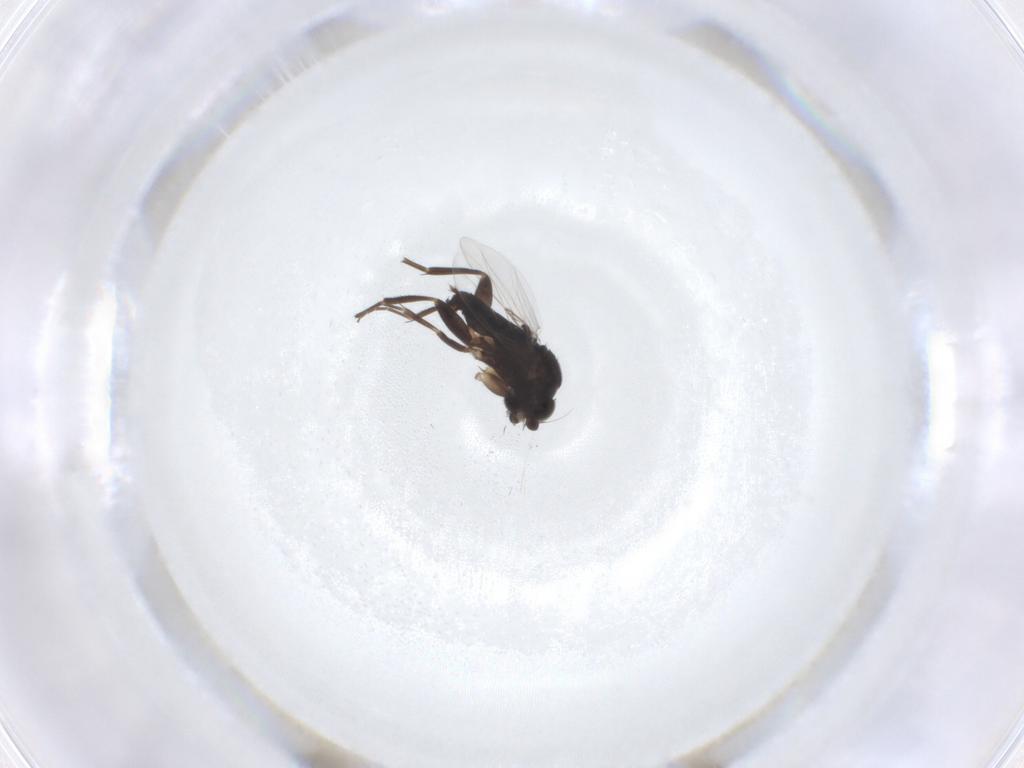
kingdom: Animalia
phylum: Arthropoda
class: Insecta
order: Diptera
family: Phoridae
